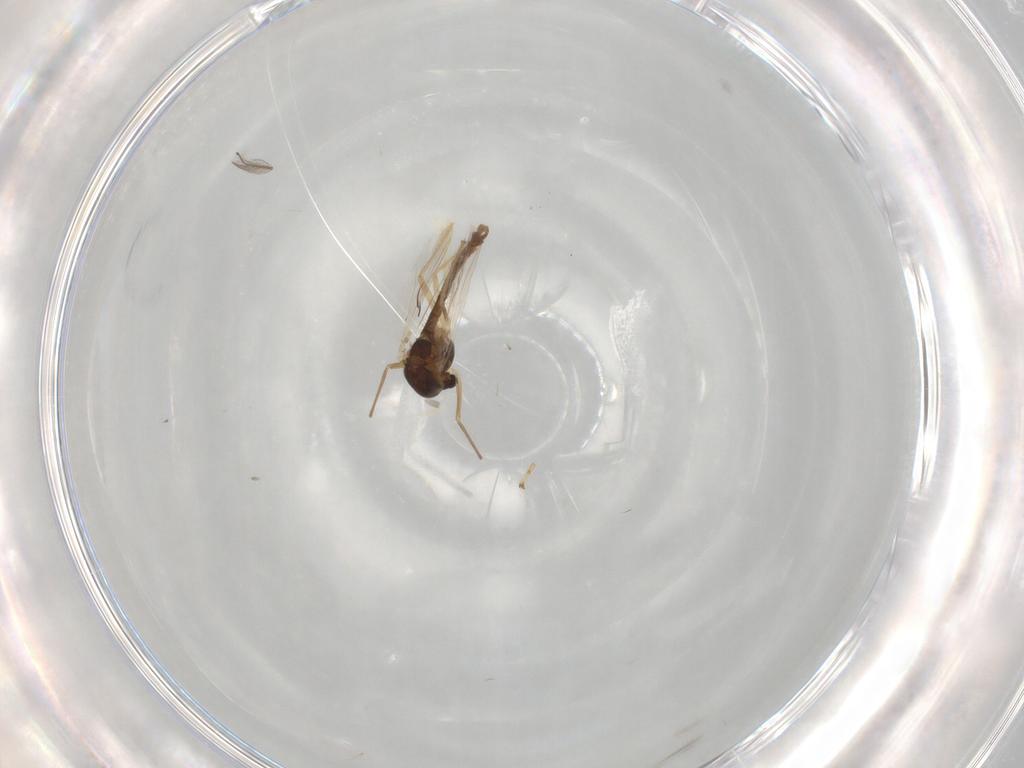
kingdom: Animalia
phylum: Arthropoda
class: Insecta
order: Diptera
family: Chironomidae
